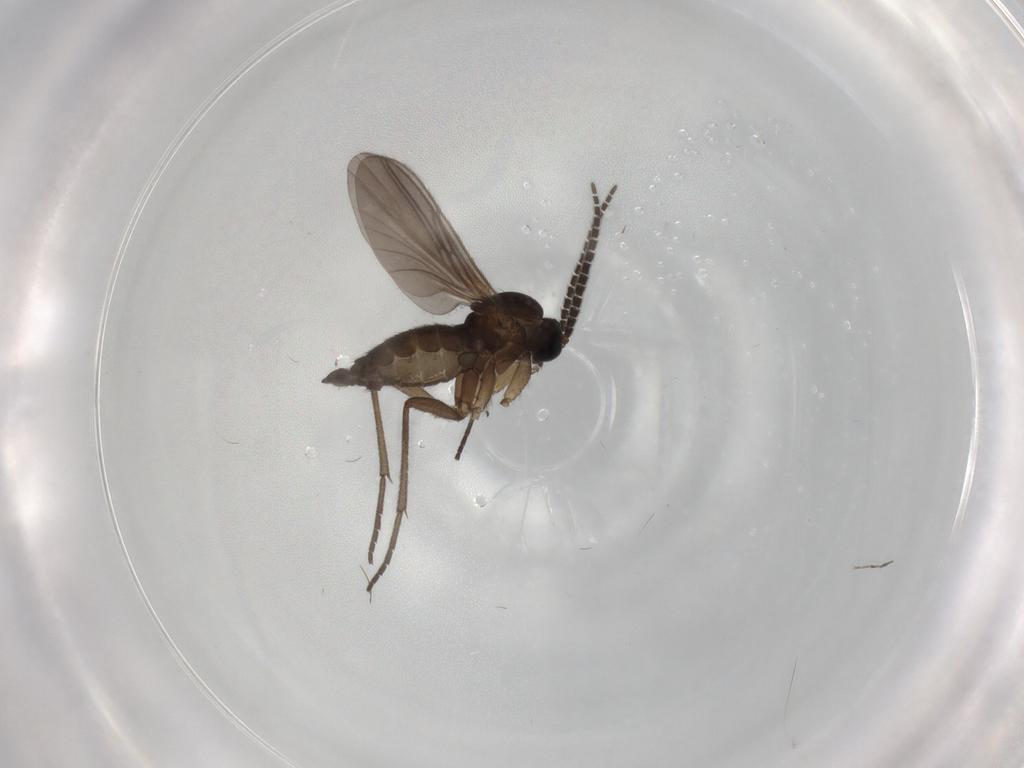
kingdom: Animalia
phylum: Arthropoda
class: Insecta
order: Diptera
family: Sciaridae
